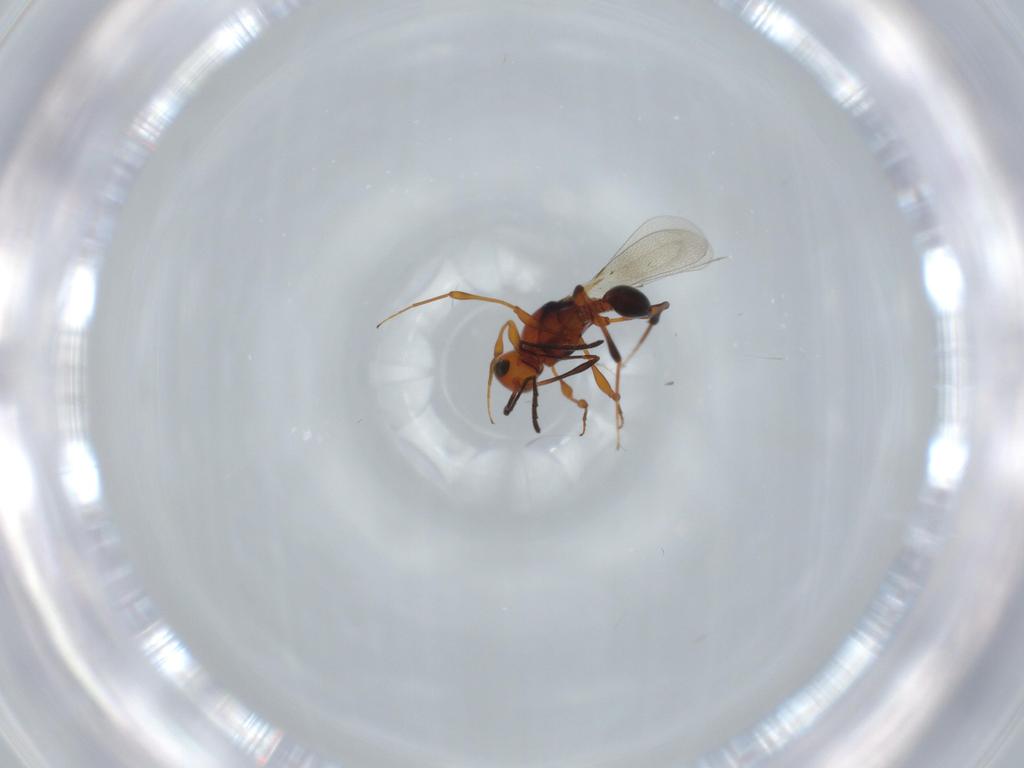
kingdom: Animalia
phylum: Arthropoda
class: Insecta
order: Hymenoptera
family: Platygastridae
